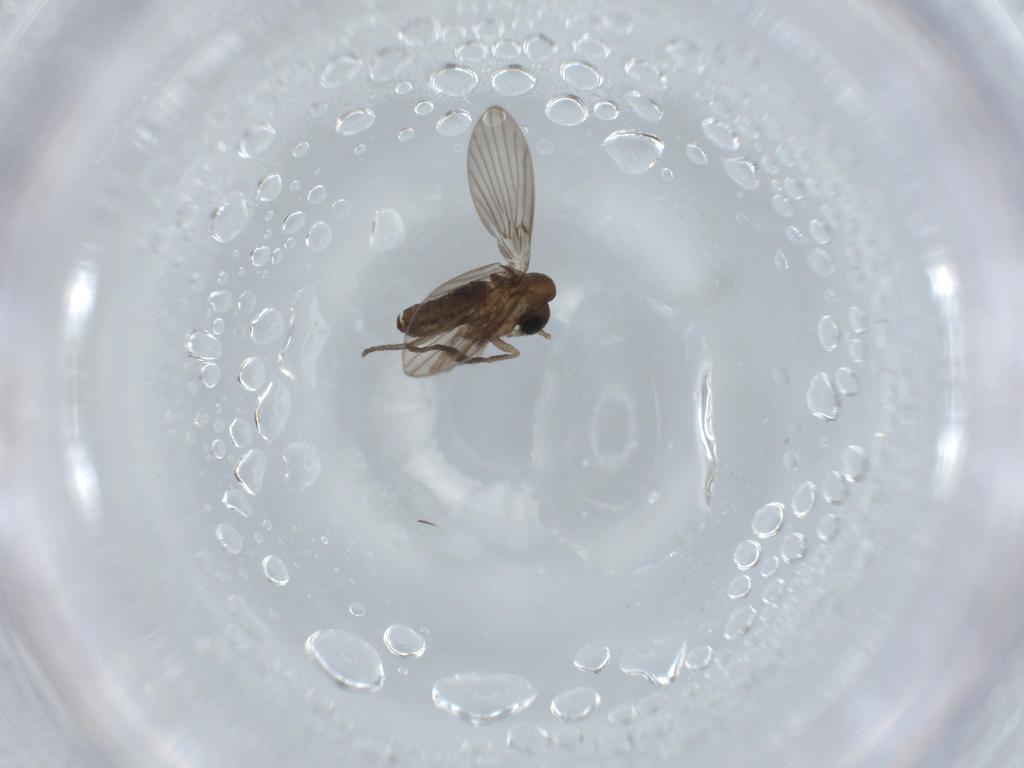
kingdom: Animalia
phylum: Arthropoda
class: Insecta
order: Diptera
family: Psychodidae
